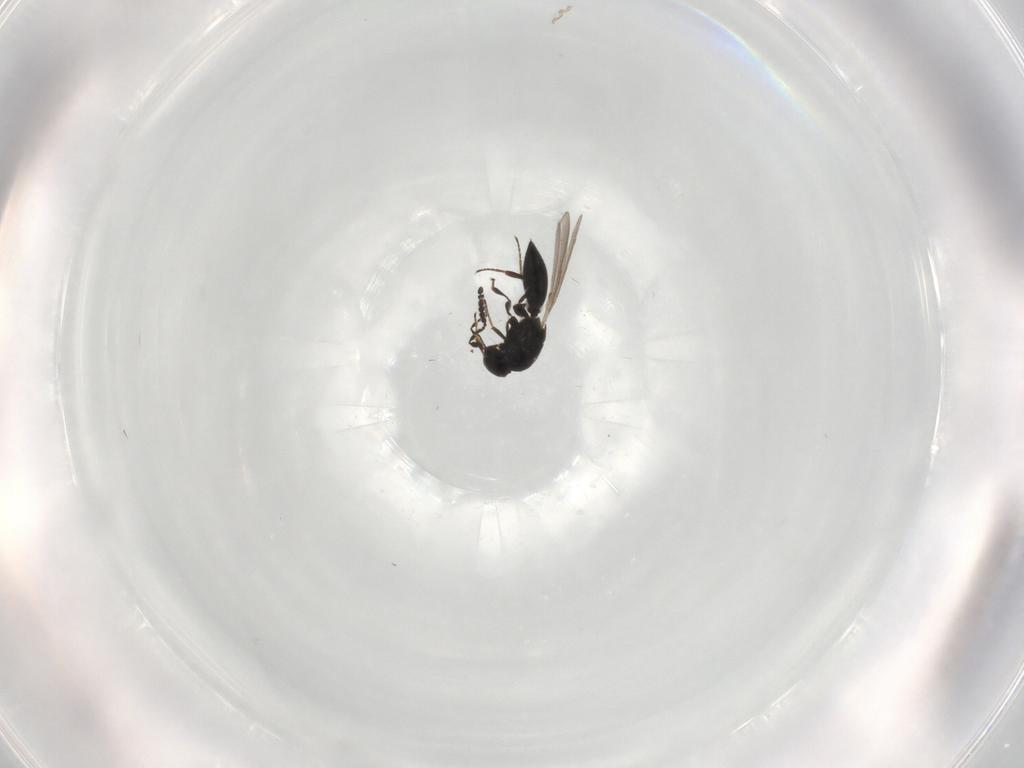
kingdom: Animalia
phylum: Arthropoda
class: Insecta
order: Hymenoptera
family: Platygastridae
